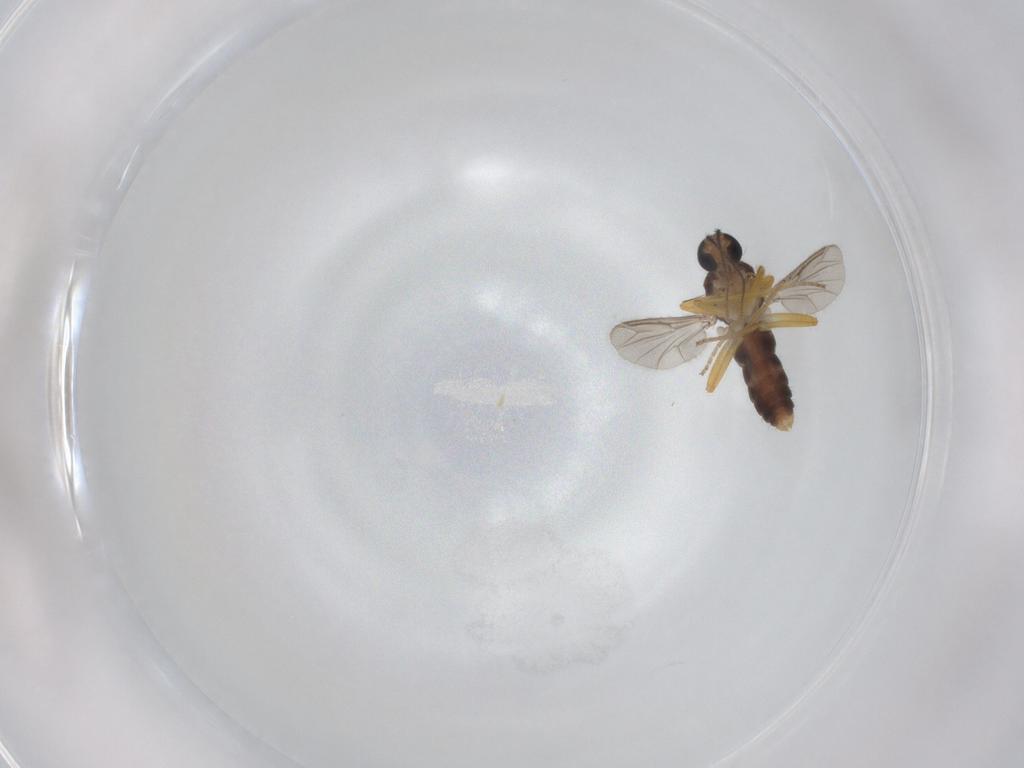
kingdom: Animalia
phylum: Arthropoda
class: Insecta
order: Diptera
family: Ceratopogonidae
